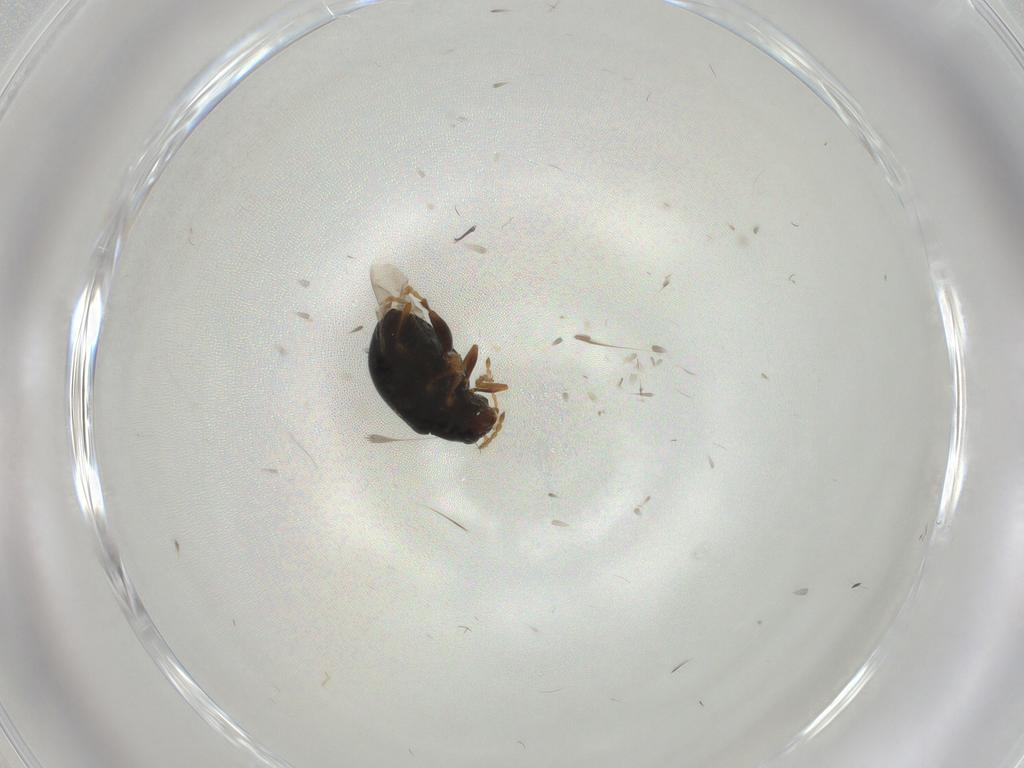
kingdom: Animalia
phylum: Arthropoda
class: Insecta
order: Coleoptera
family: Chrysomelidae
